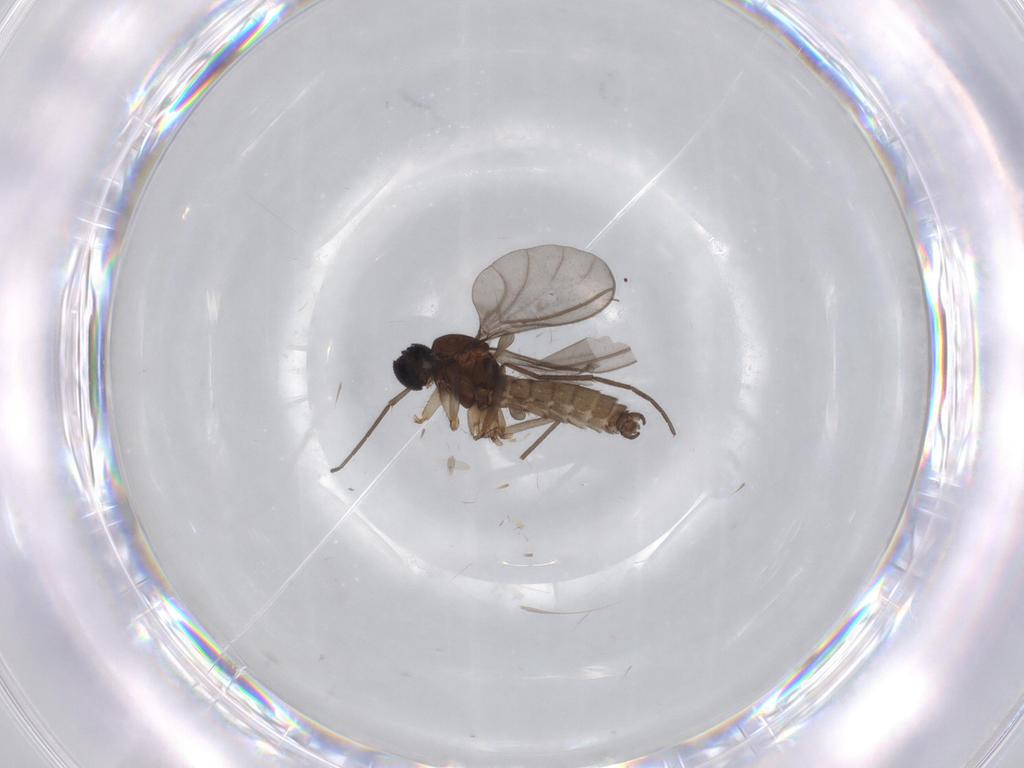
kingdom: Animalia
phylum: Arthropoda
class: Insecta
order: Diptera
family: Sciaridae
